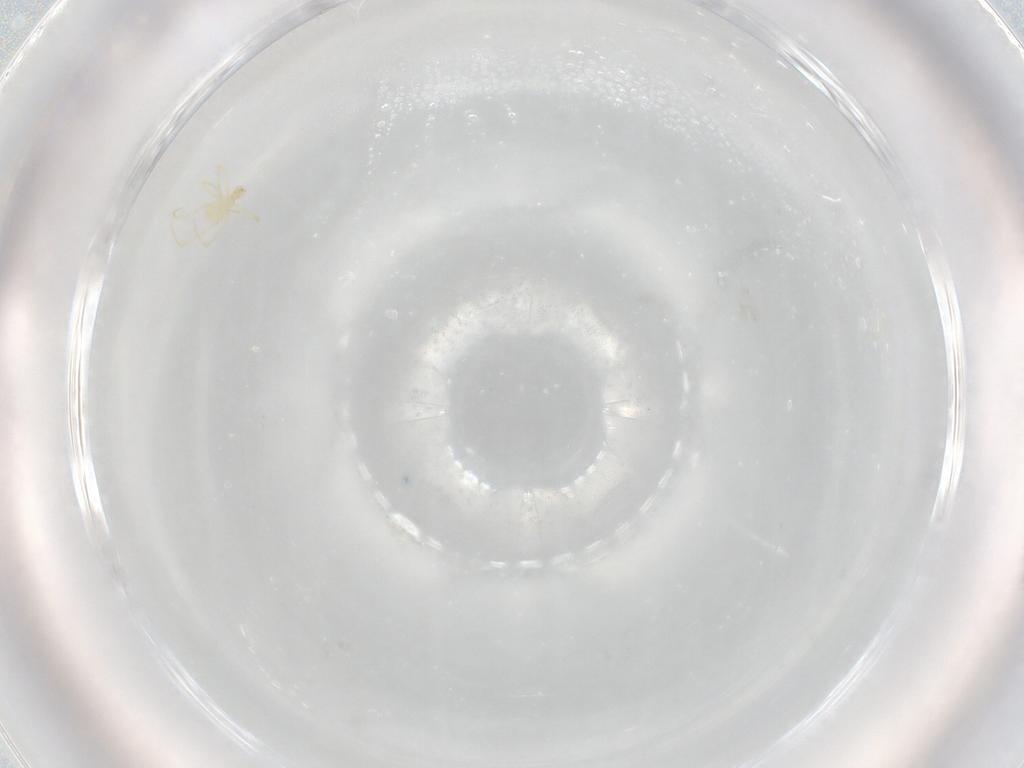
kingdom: Animalia
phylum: Arthropoda
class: Arachnida
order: Trombidiformes
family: Erythraeidae
